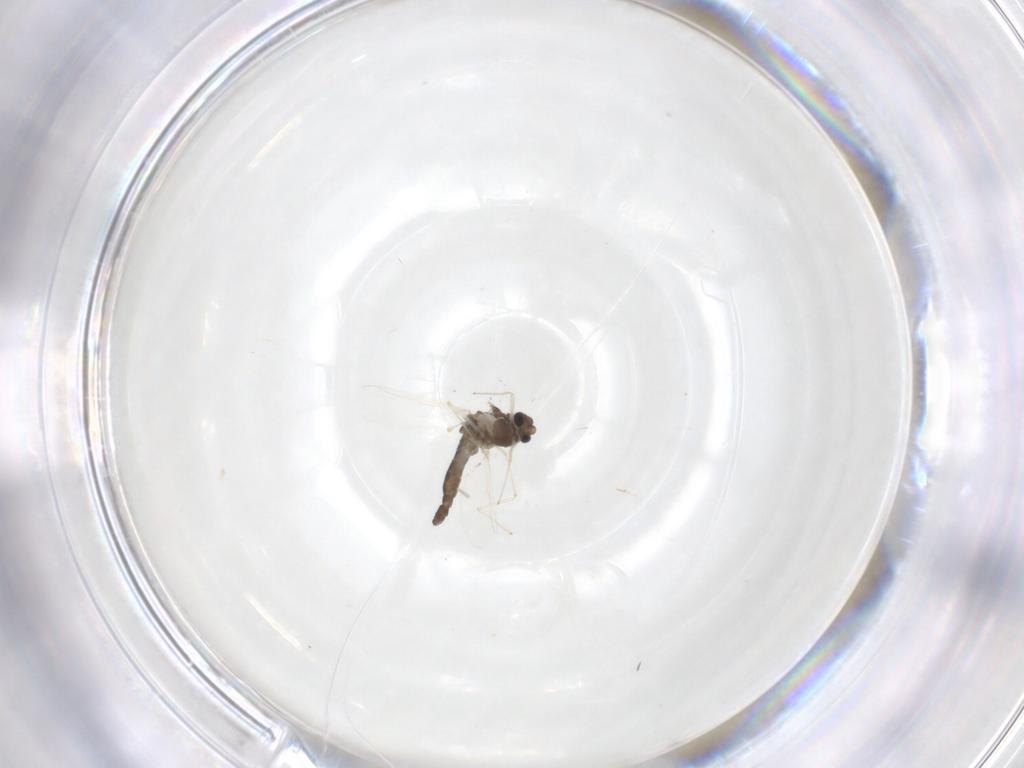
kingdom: Animalia
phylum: Arthropoda
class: Insecta
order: Diptera
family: Chironomidae
